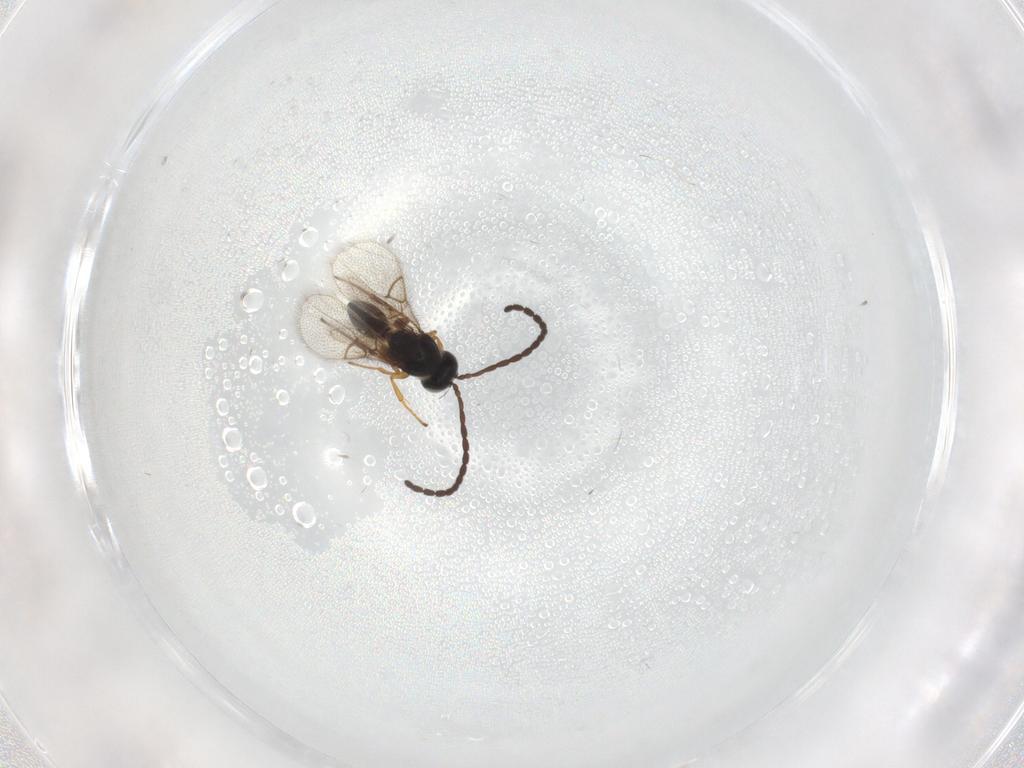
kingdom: Animalia
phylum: Arthropoda
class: Insecta
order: Hymenoptera
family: Figitidae
